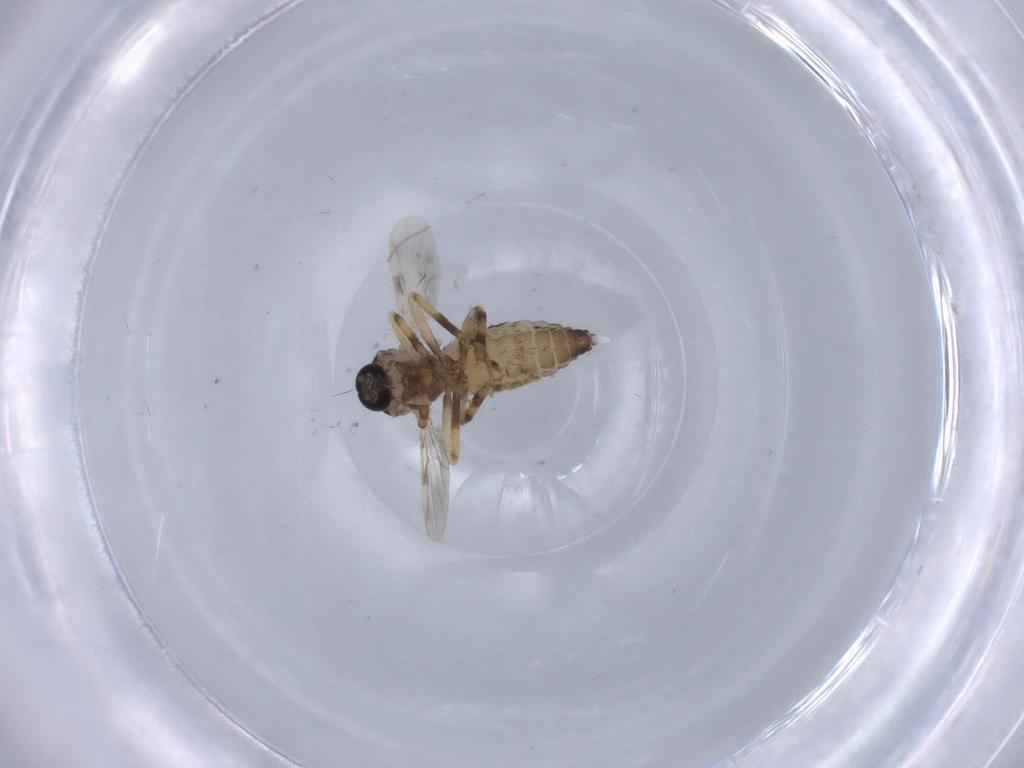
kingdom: Animalia
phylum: Arthropoda
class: Insecta
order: Diptera
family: Ceratopogonidae
